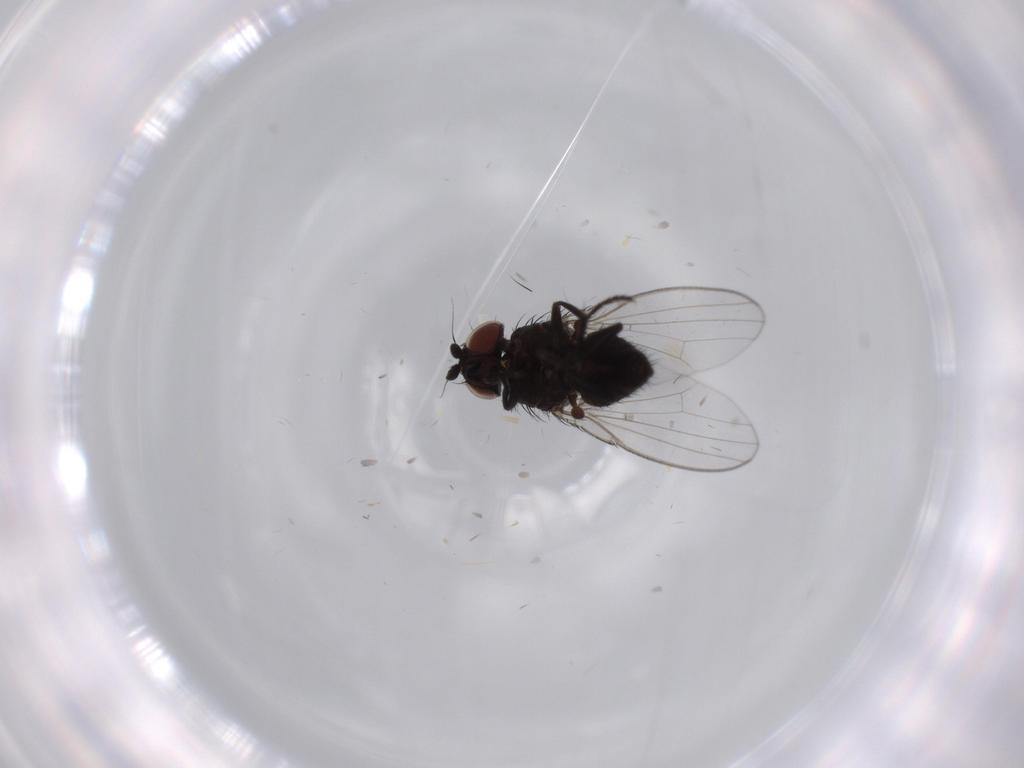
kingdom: Animalia
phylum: Arthropoda
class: Insecta
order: Diptera
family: Milichiidae
